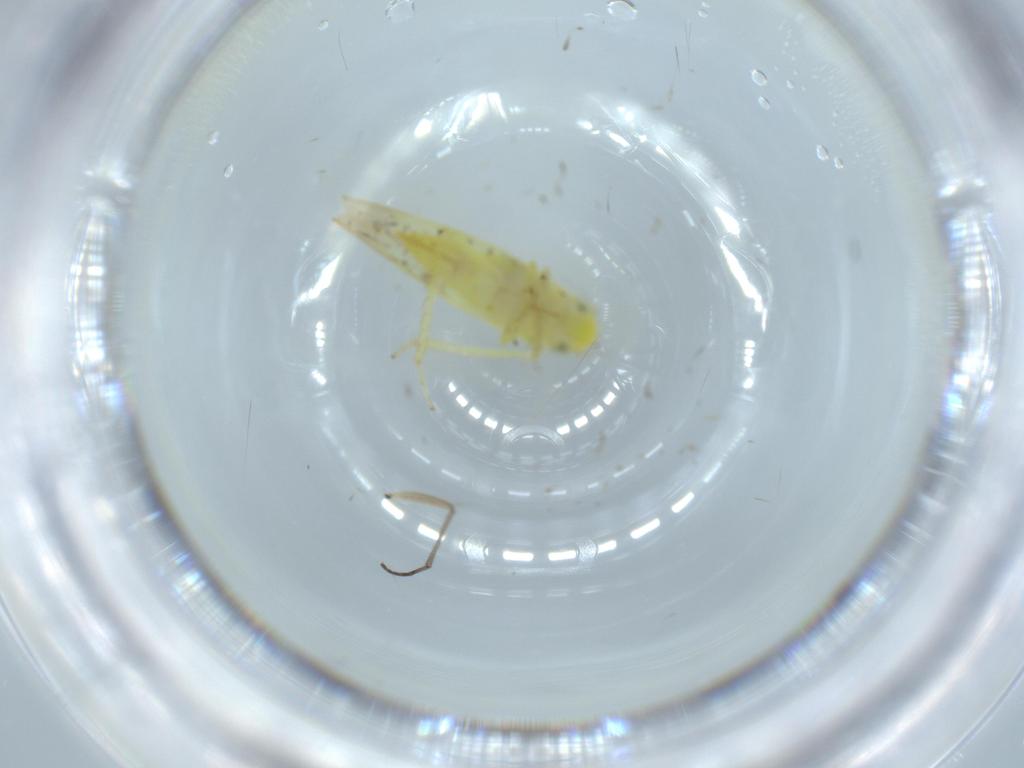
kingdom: Animalia
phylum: Arthropoda
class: Insecta
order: Hemiptera
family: Cicadellidae
